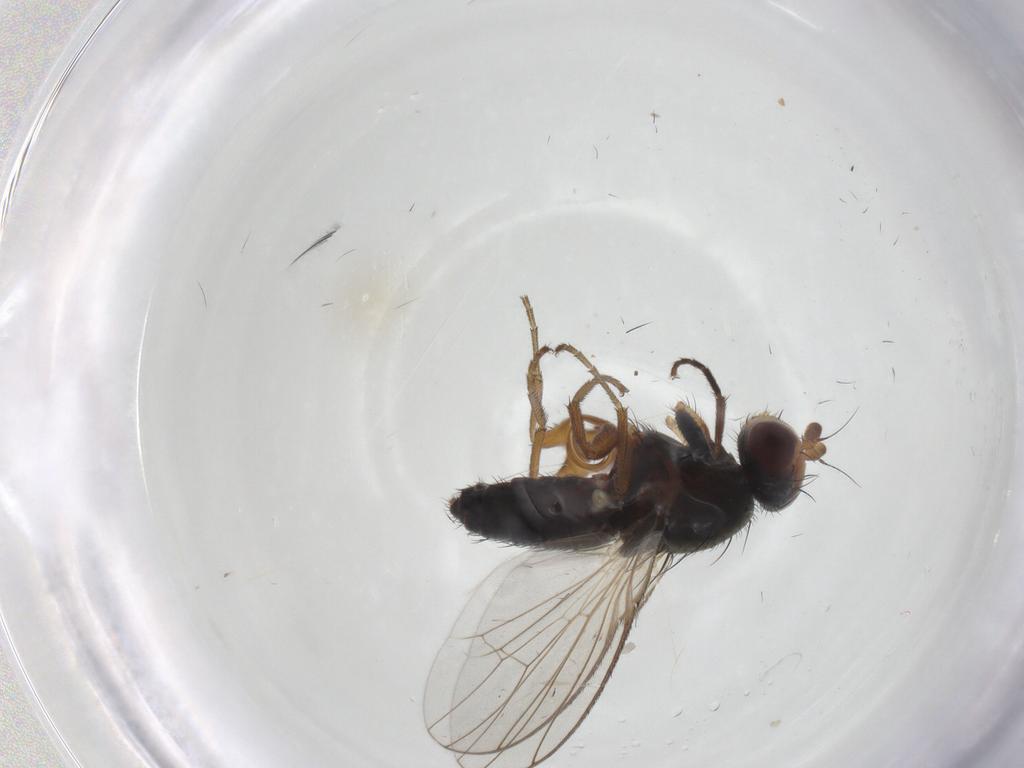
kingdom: Animalia
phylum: Arthropoda
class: Insecta
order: Diptera
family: Heleomyzidae
